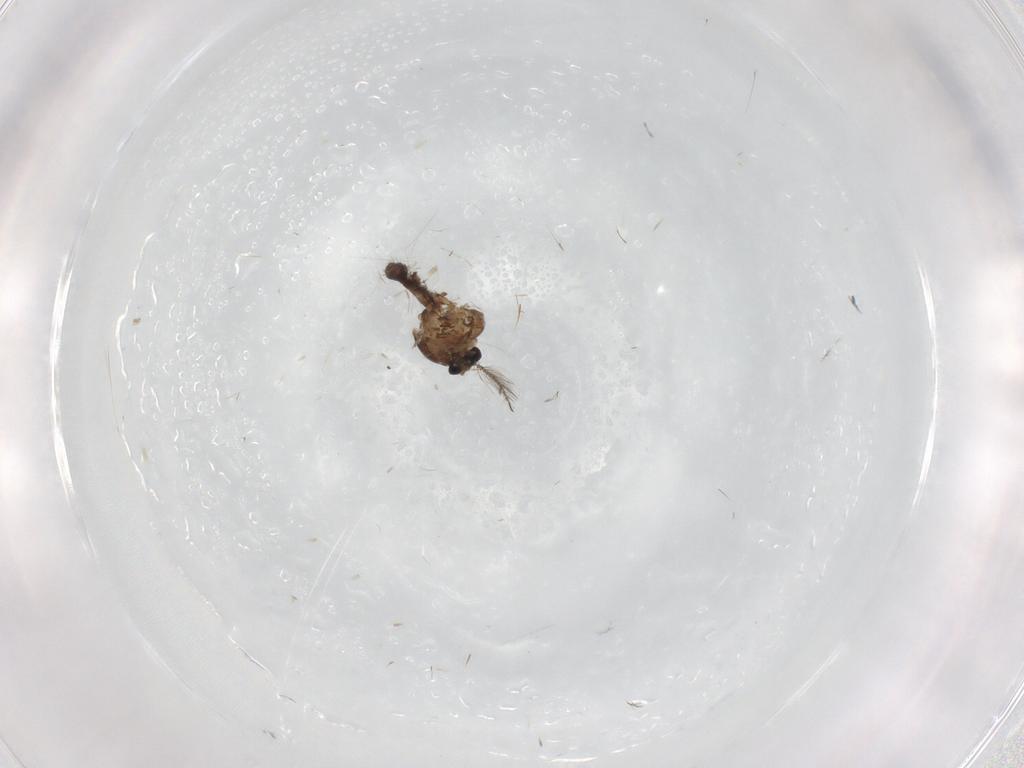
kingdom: Animalia
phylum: Arthropoda
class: Insecta
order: Diptera
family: Ceratopogonidae
